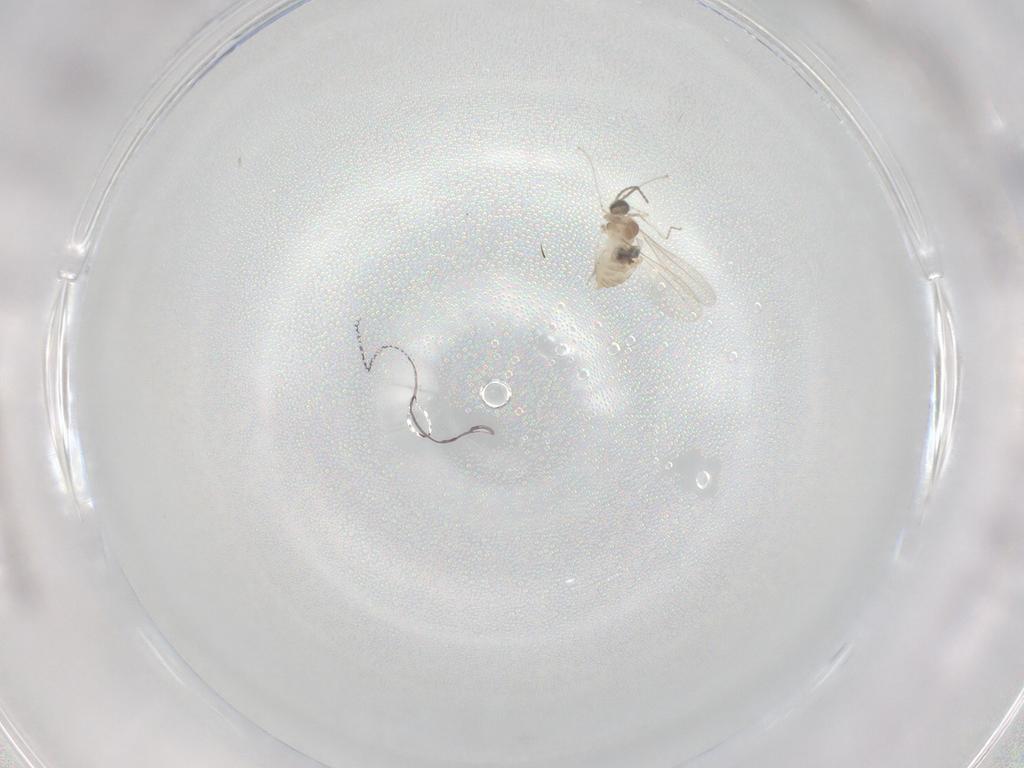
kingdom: Animalia
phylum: Arthropoda
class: Insecta
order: Diptera
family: Cecidomyiidae
